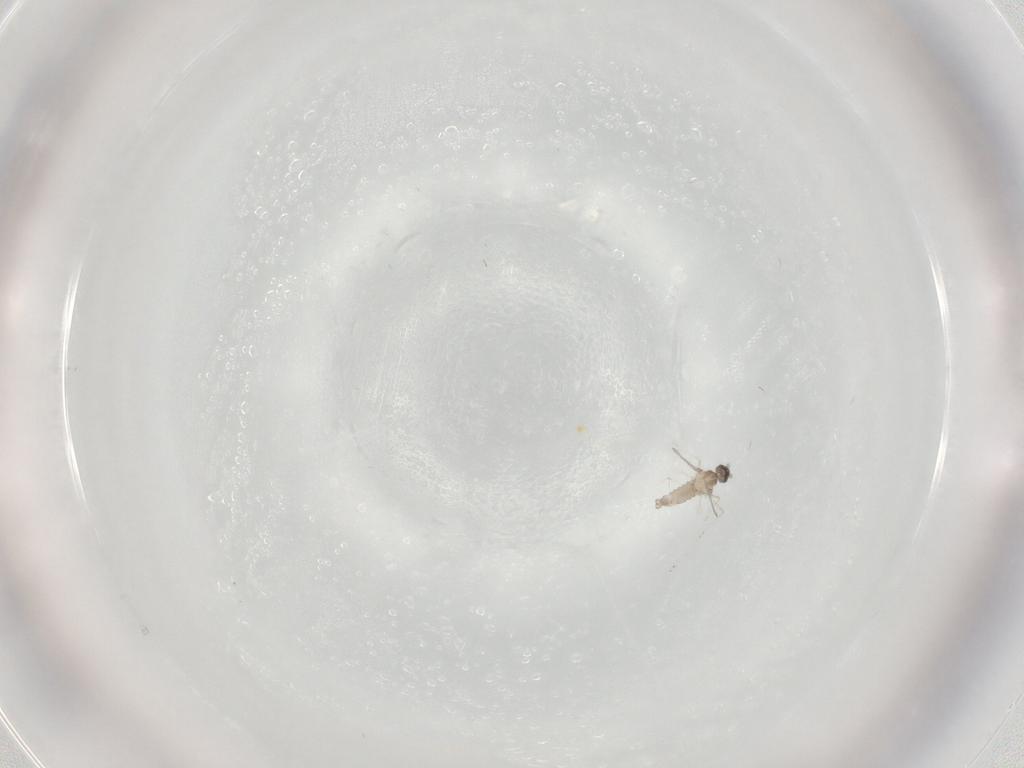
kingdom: Animalia
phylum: Arthropoda
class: Insecta
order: Diptera
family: Cecidomyiidae
